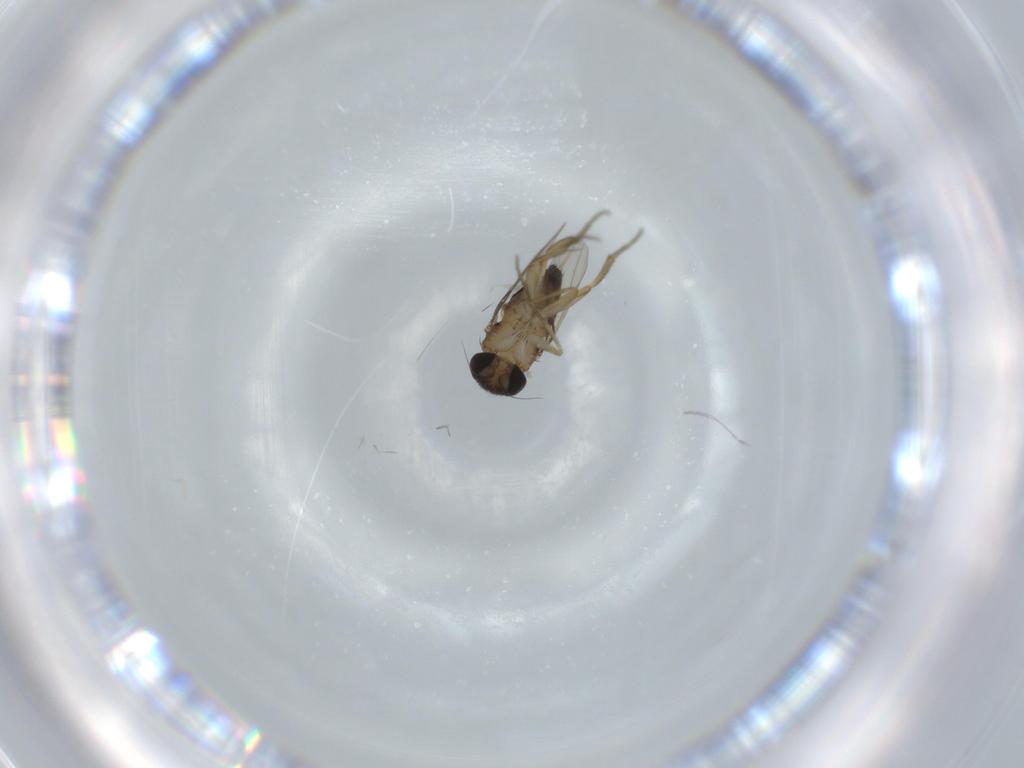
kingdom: Animalia
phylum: Arthropoda
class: Insecta
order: Diptera
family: Phoridae
